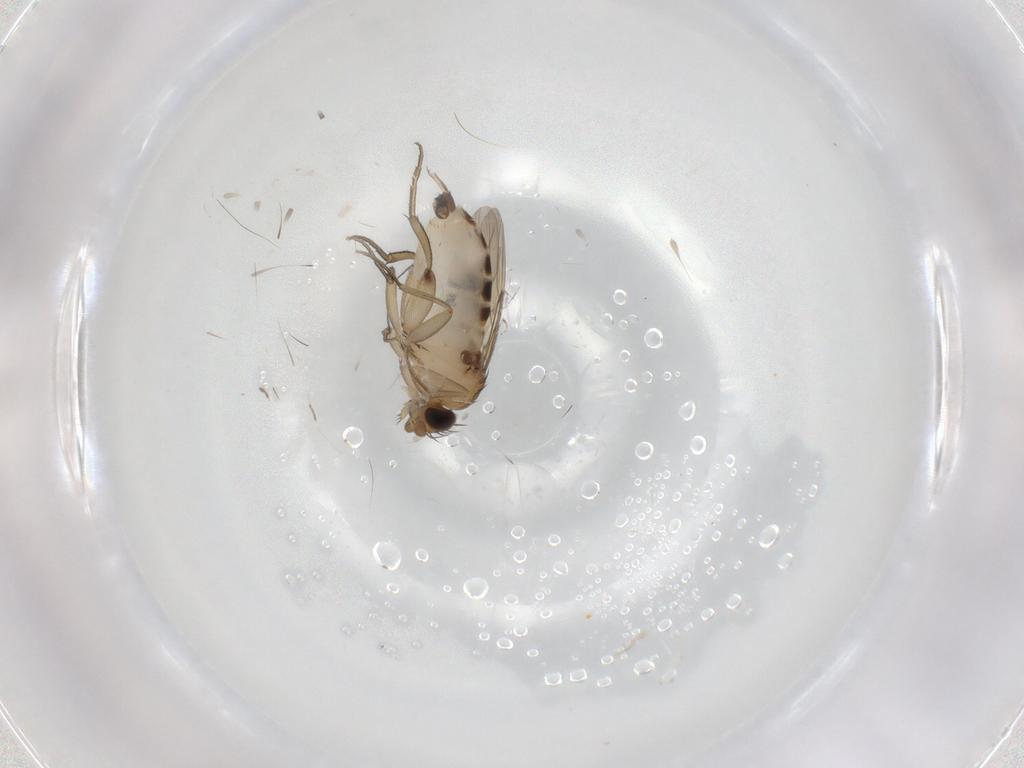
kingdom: Animalia
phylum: Arthropoda
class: Insecta
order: Diptera
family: Phoridae
